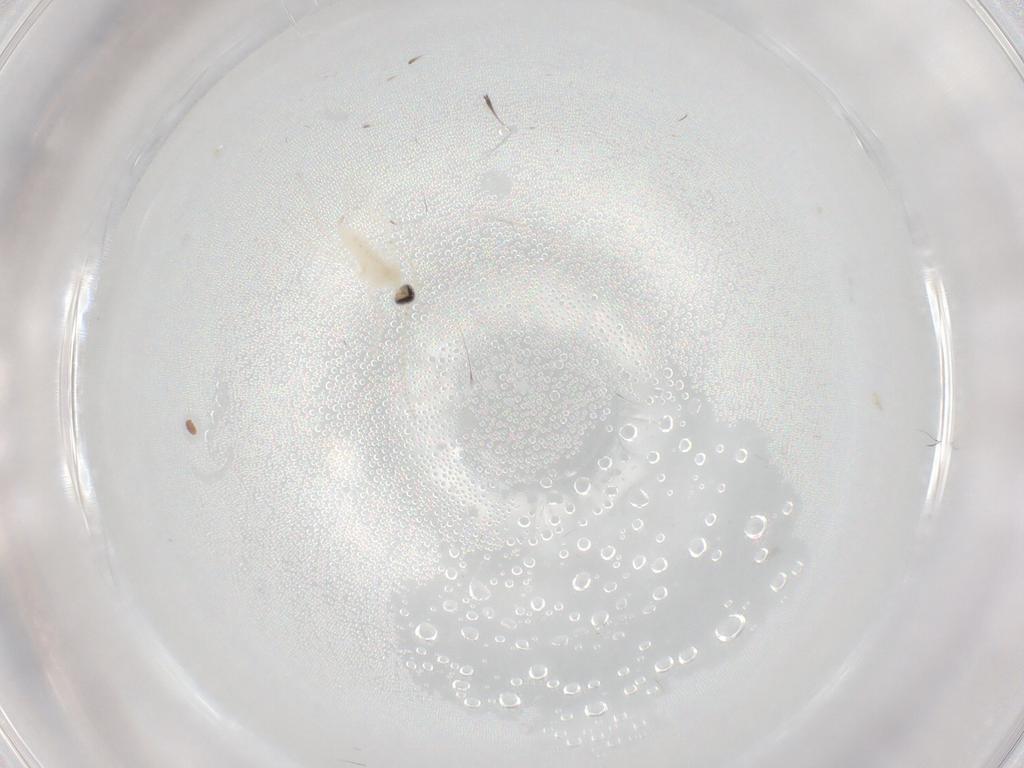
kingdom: Animalia
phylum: Arthropoda
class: Insecta
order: Diptera
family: Cecidomyiidae
